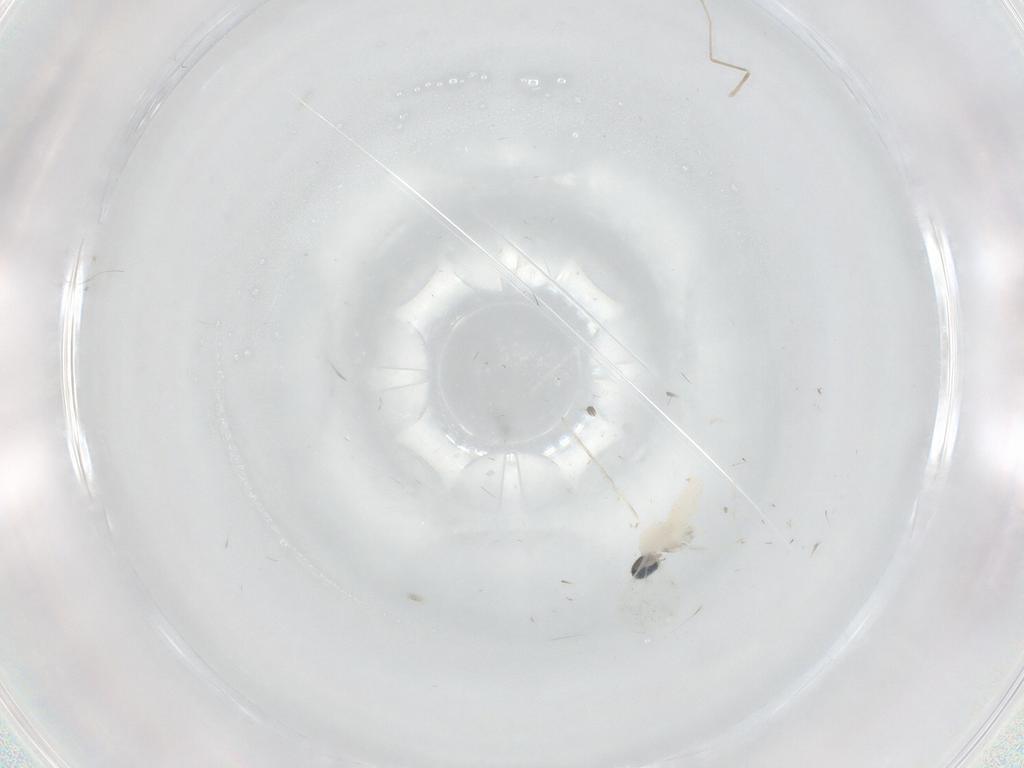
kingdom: Animalia
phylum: Arthropoda
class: Insecta
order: Diptera
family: Cecidomyiidae
